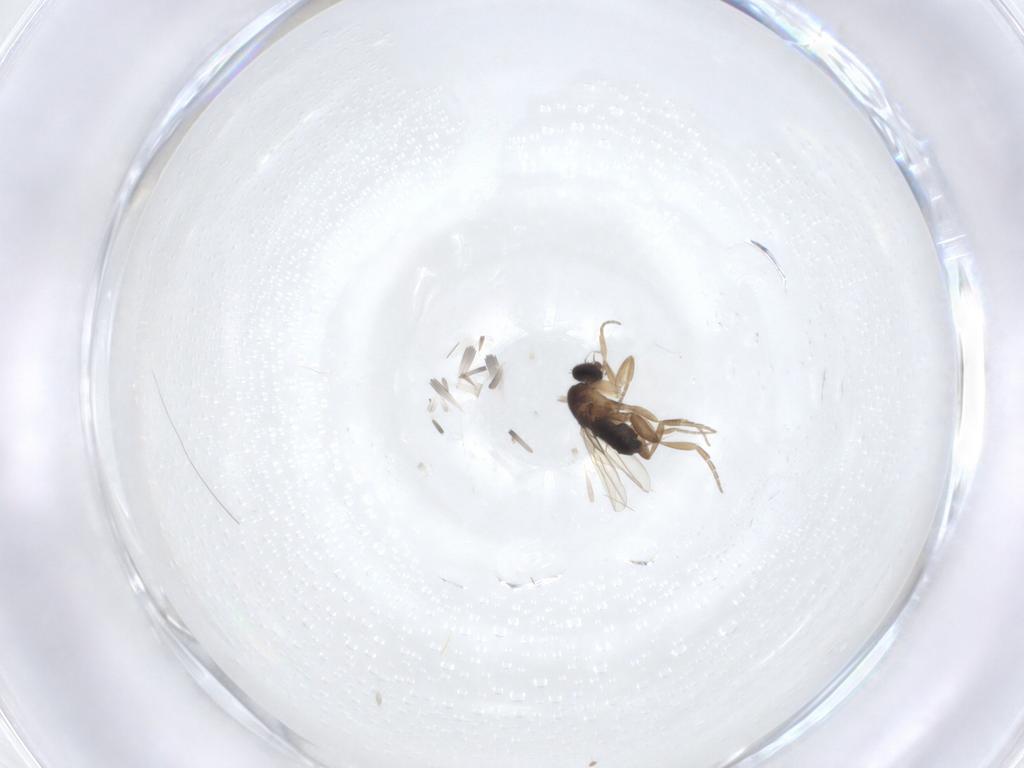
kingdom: Animalia
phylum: Arthropoda
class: Insecta
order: Diptera
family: Phoridae
